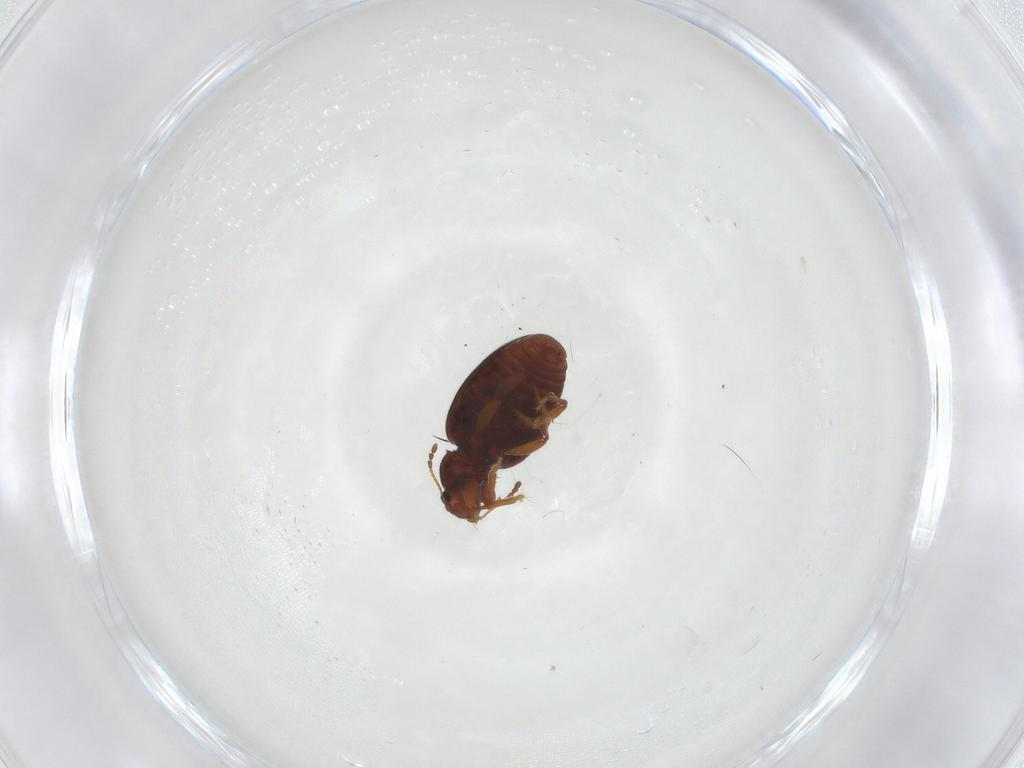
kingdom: Animalia
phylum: Arthropoda
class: Insecta
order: Coleoptera
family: Latridiidae
